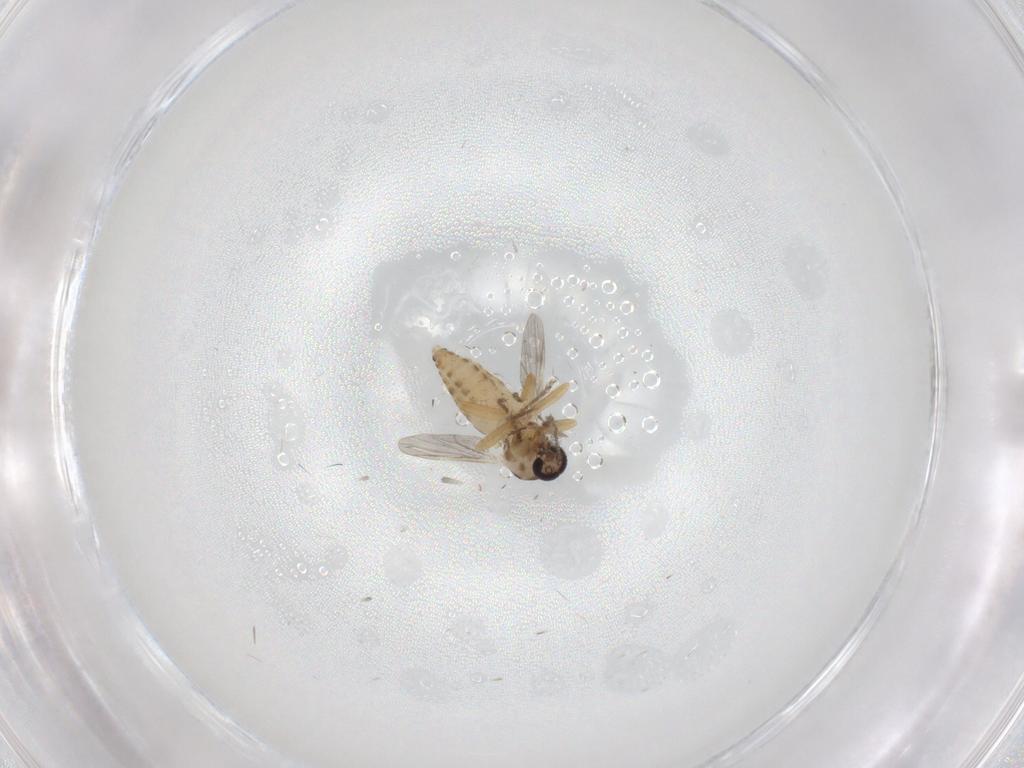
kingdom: Animalia
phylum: Arthropoda
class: Insecta
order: Diptera
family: Ceratopogonidae
